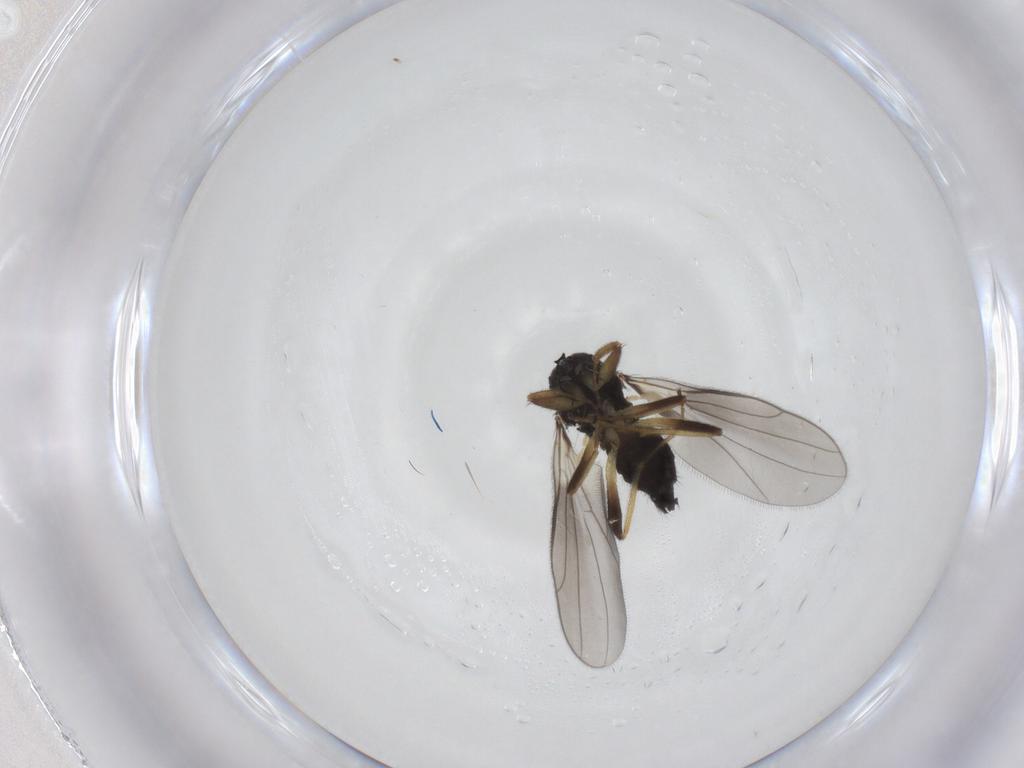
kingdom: Animalia
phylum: Arthropoda
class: Insecta
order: Diptera
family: Hybotidae
